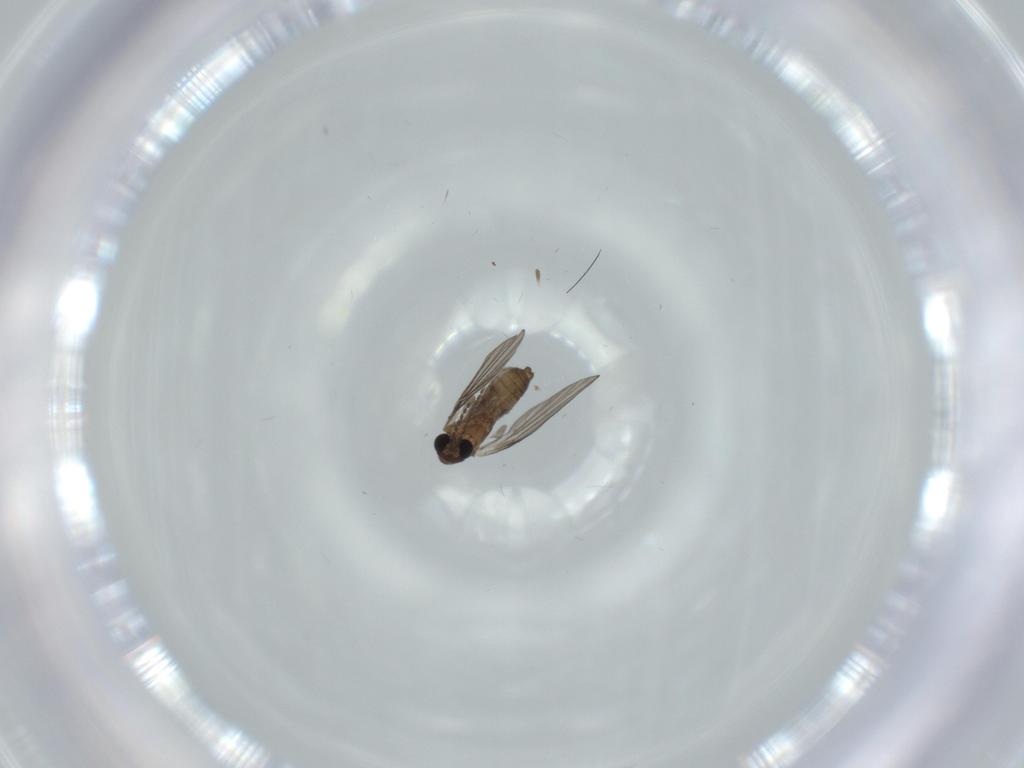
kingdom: Animalia
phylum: Arthropoda
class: Insecta
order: Diptera
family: Psychodidae
